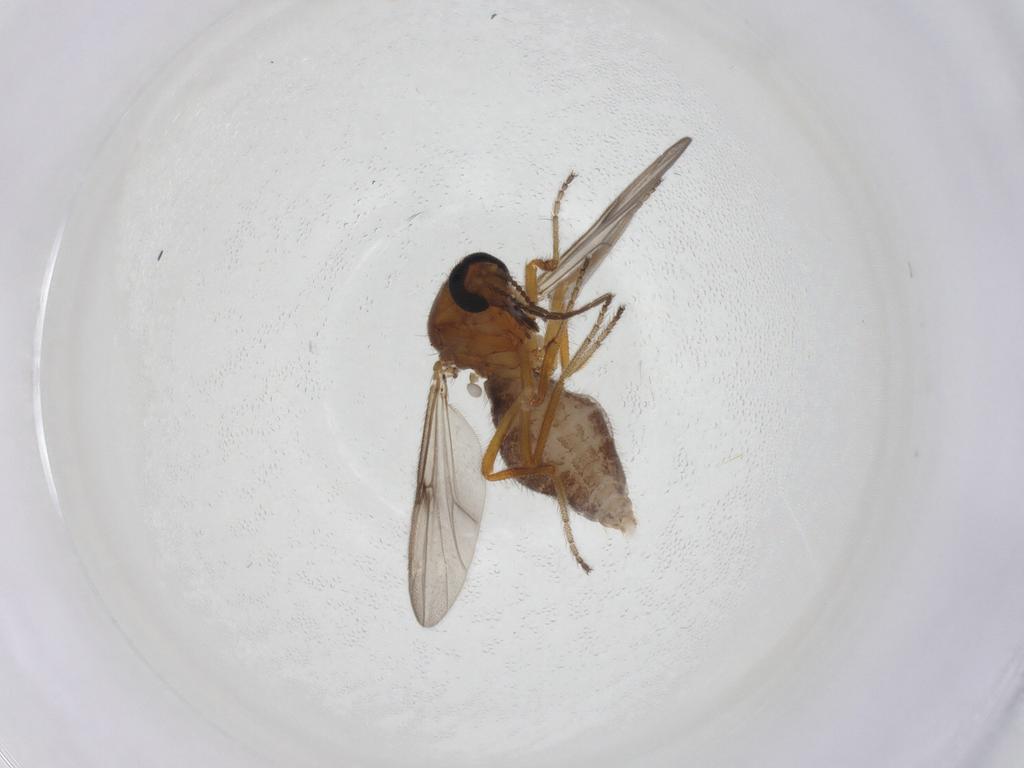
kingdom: Animalia
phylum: Arthropoda
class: Insecta
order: Diptera
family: Ceratopogonidae
